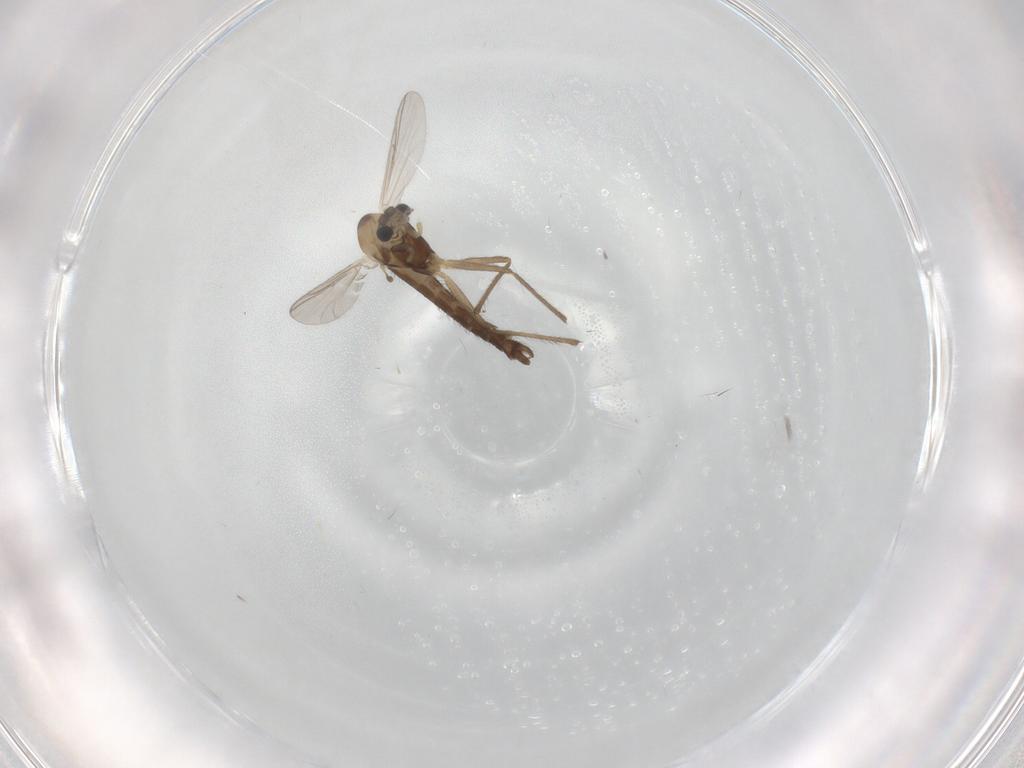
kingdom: Animalia
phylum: Arthropoda
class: Insecta
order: Diptera
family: Chironomidae
